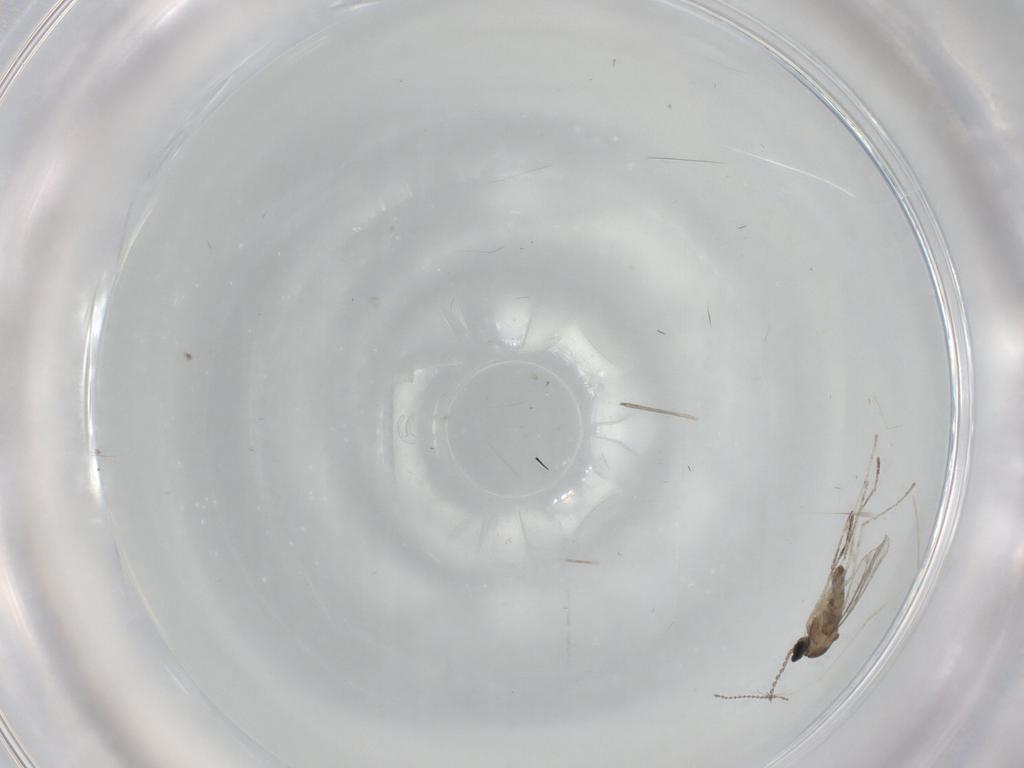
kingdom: Animalia
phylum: Arthropoda
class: Insecta
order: Diptera
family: Cecidomyiidae
